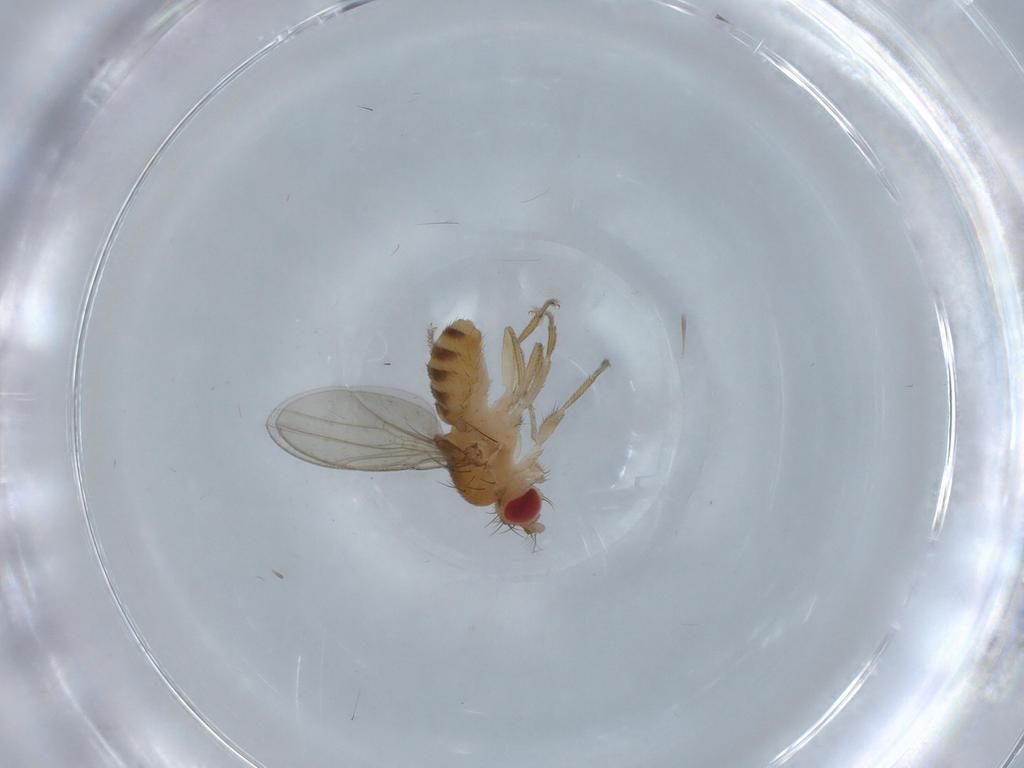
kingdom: Animalia
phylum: Arthropoda
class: Insecta
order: Diptera
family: Drosophilidae
